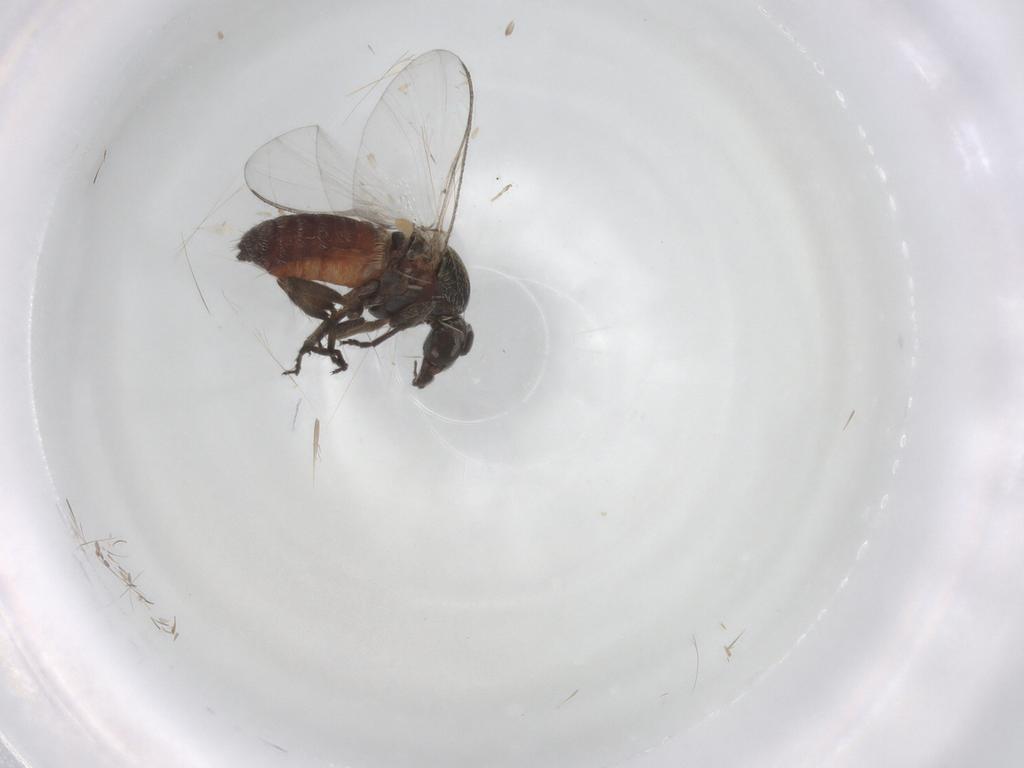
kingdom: Animalia
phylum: Arthropoda
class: Insecta
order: Diptera
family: Simuliidae
